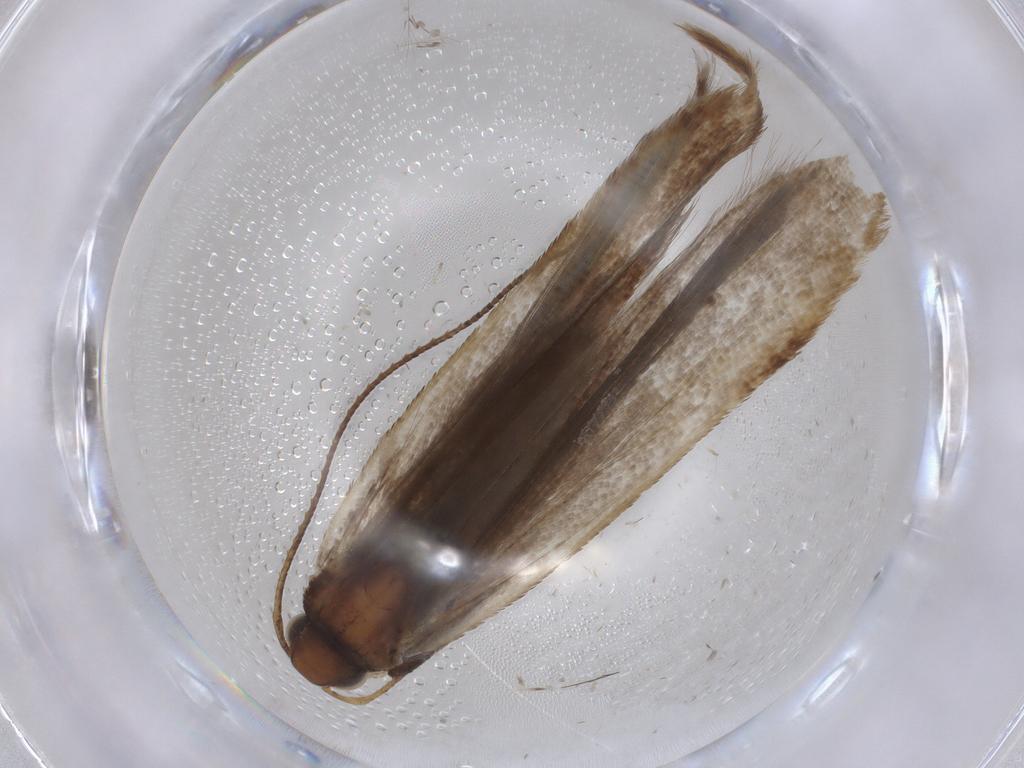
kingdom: Animalia
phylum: Arthropoda
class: Insecta
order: Lepidoptera
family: Gelechiidae
